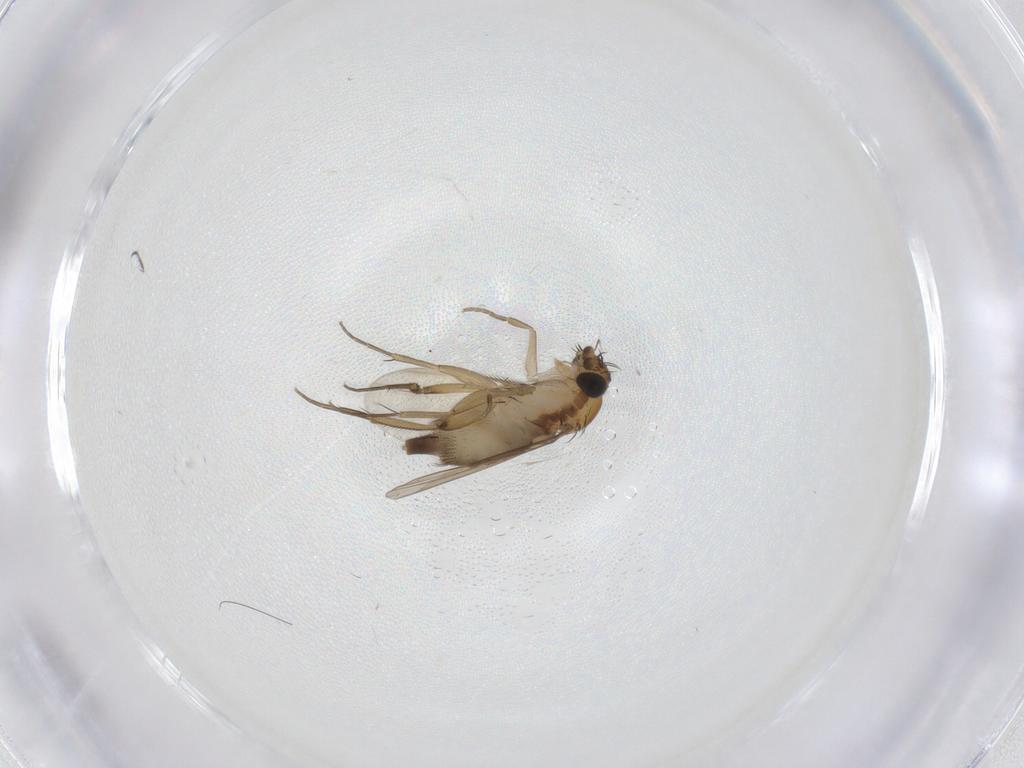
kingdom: Animalia
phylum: Arthropoda
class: Insecta
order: Diptera
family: Phoridae
